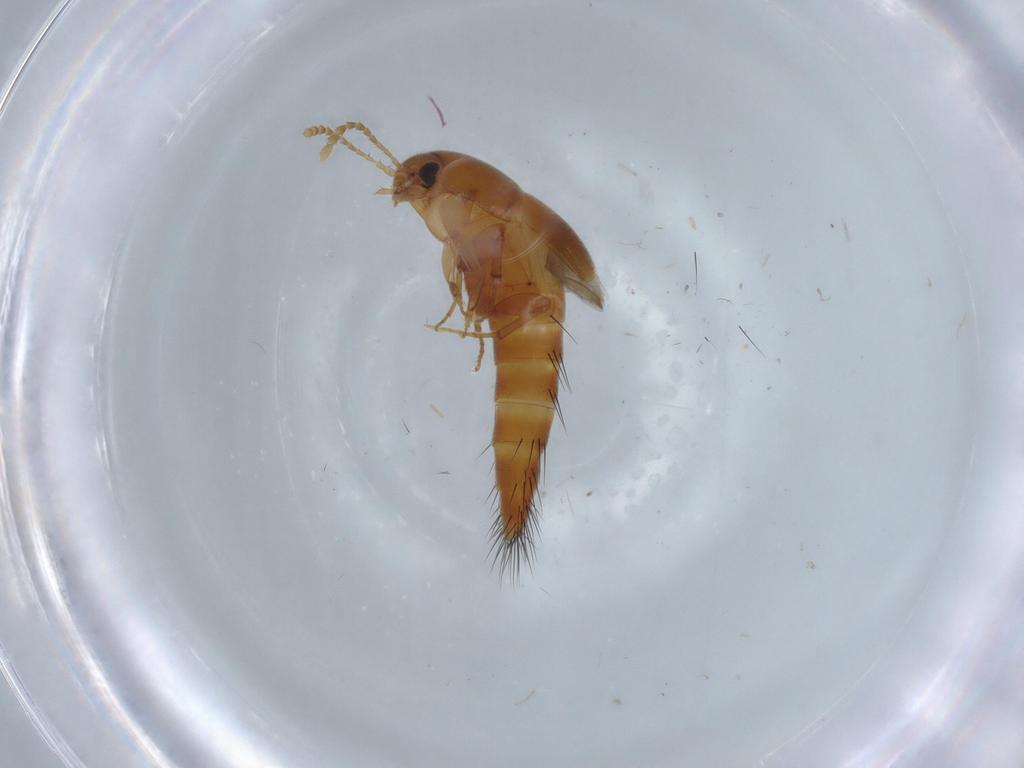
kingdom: Animalia
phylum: Arthropoda
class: Insecta
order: Coleoptera
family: Staphylinidae
